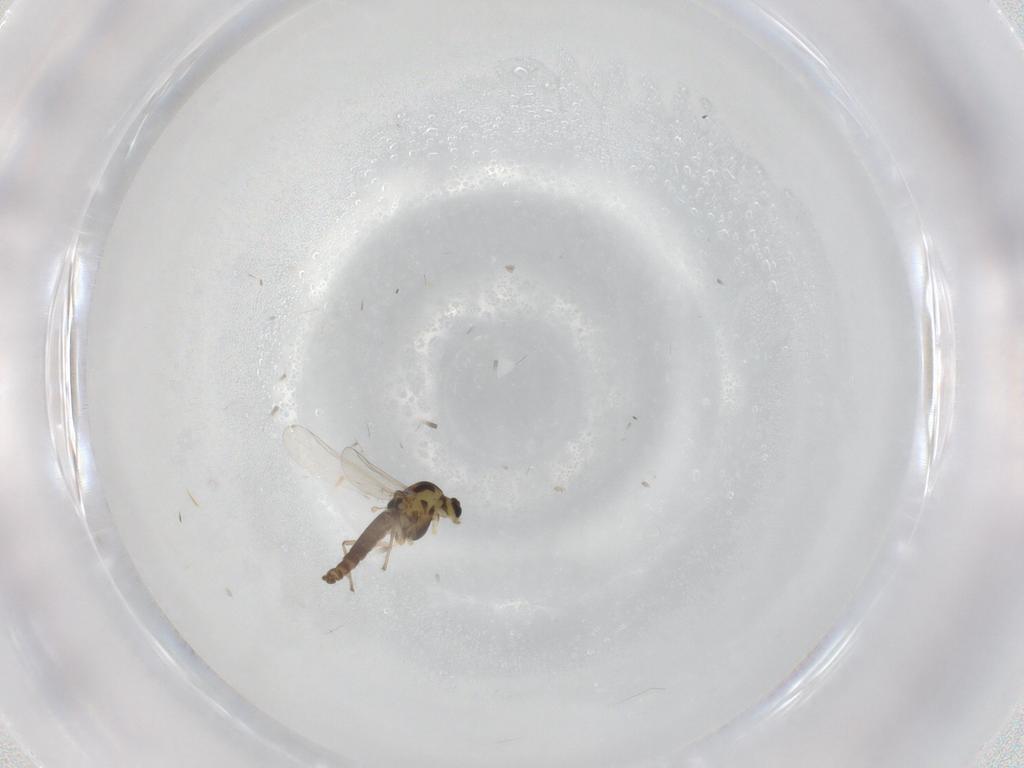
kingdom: Animalia
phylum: Arthropoda
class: Insecta
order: Diptera
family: Chironomidae
